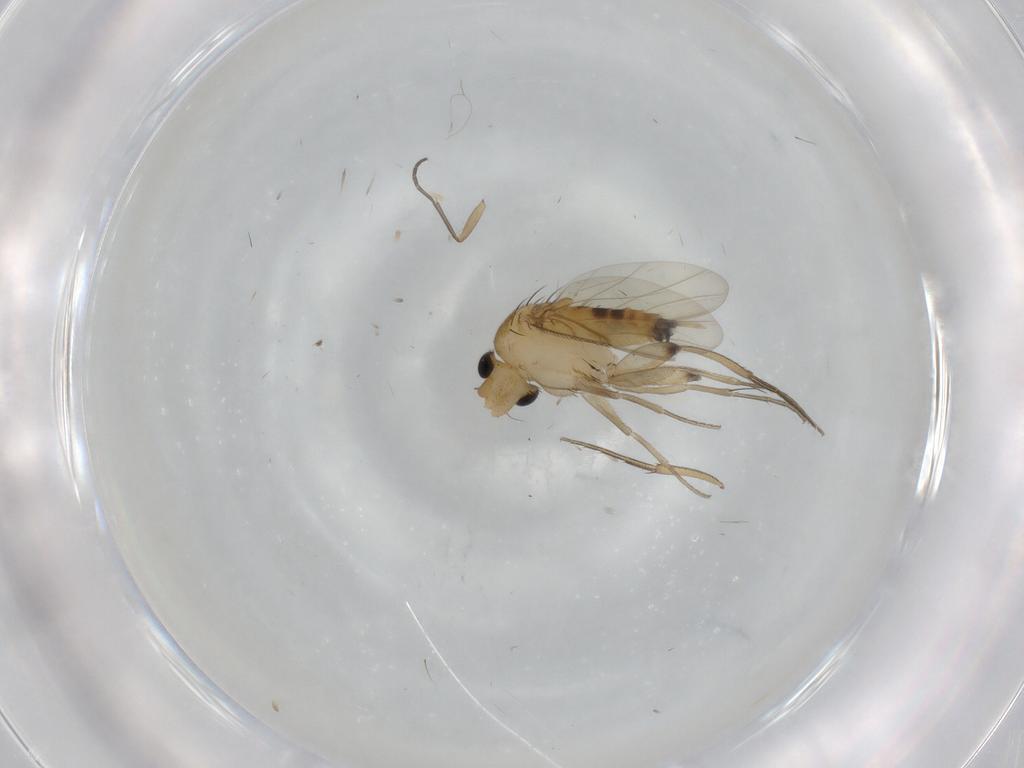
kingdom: Animalia
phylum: Arthropoda
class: Insecta
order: Diptera
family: Phoridae
